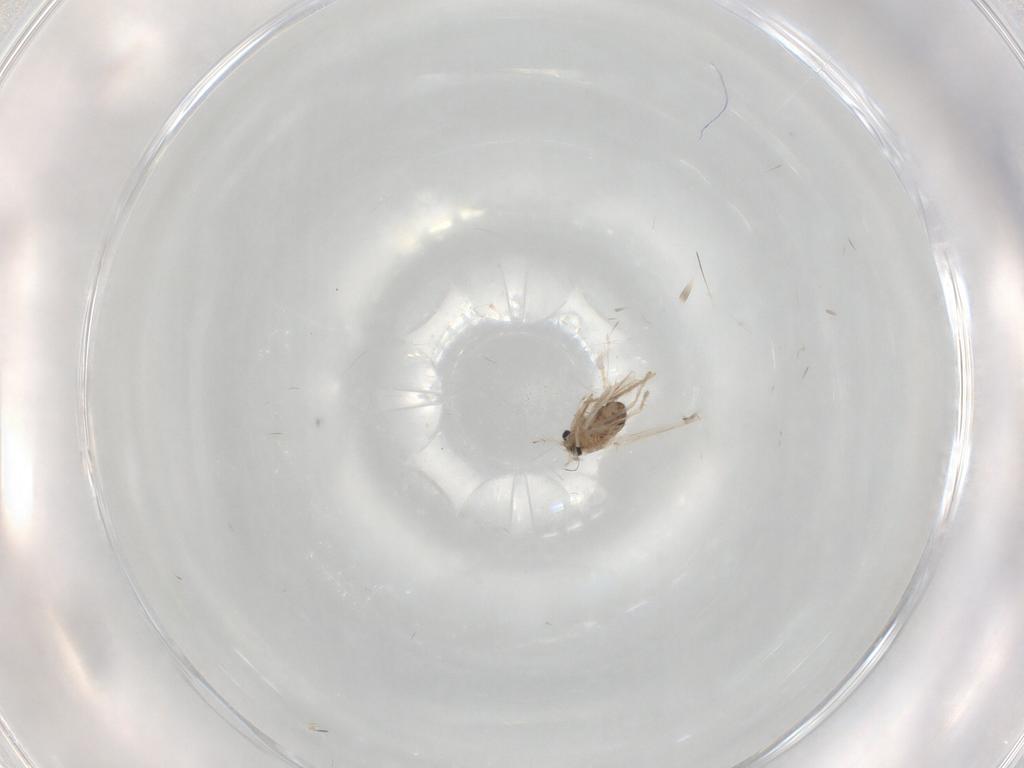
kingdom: Animalia
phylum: Arthropoda
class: Insecta
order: Diptera
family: Chironomidae
